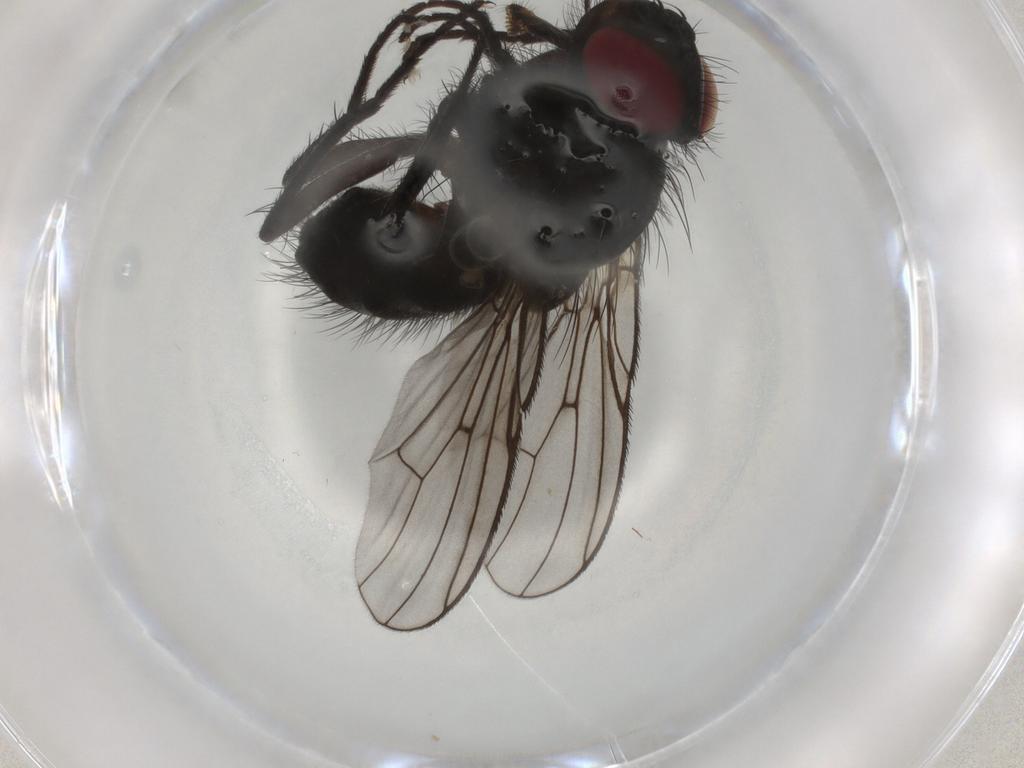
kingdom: Animalia
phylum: Arthropoda
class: Insecta
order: Diptera
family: Muscidae
